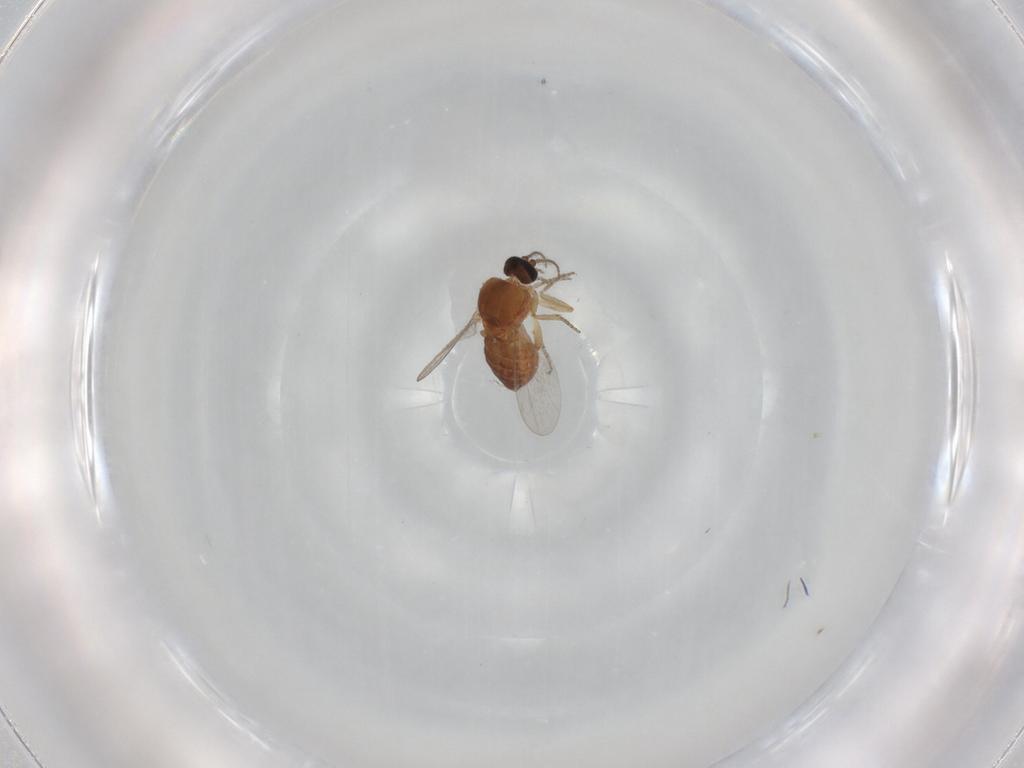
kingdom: Animalia
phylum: Arthropoda
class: Insecta
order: Diptera
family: Ceratopogonidae
